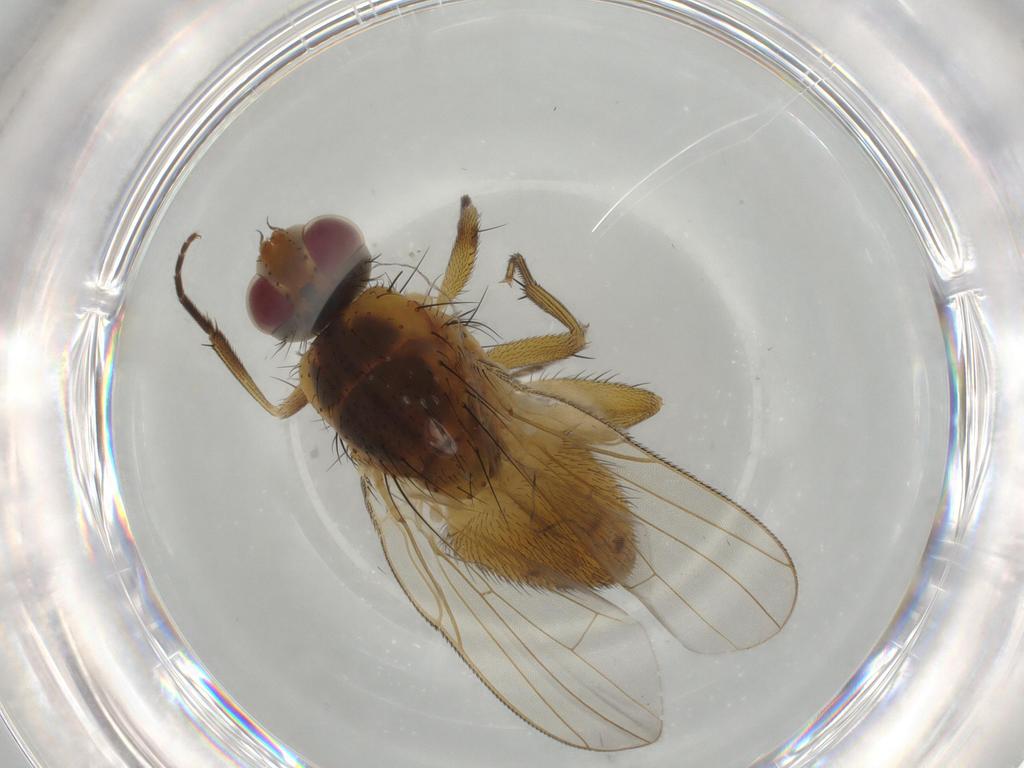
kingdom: Animalia
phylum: Arthropoda
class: Insecta
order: Diptera
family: Muscidae
